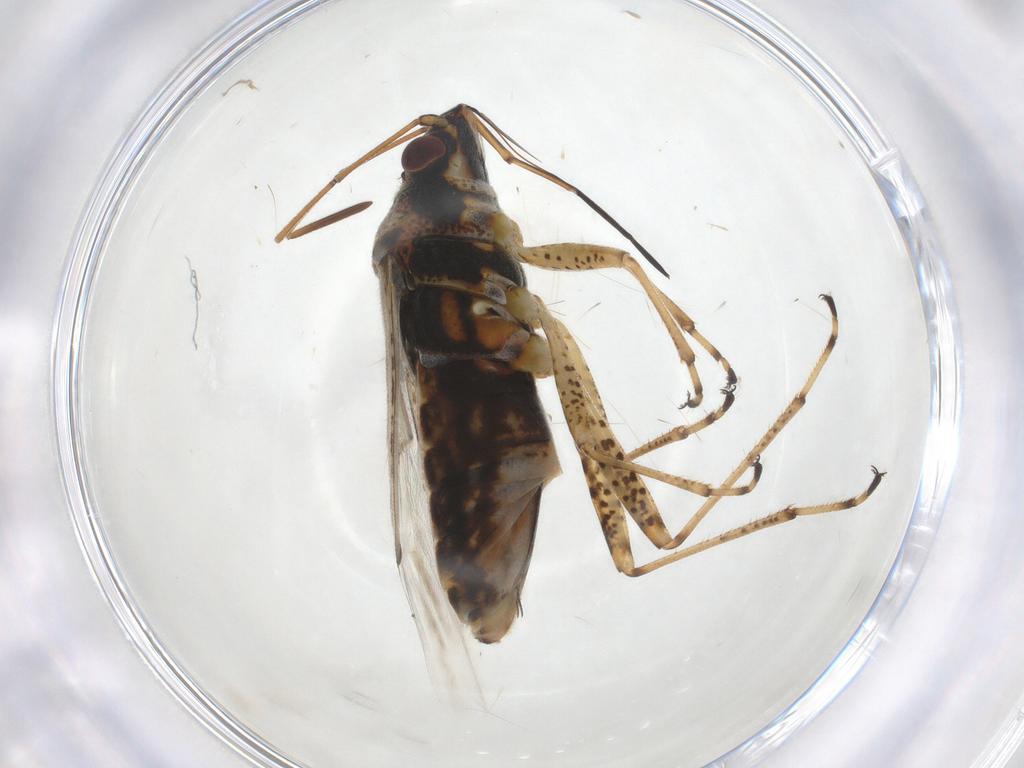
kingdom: Animalia
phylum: Arthropoda
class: Insecta
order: Hemiptera
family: Lygaeidae
